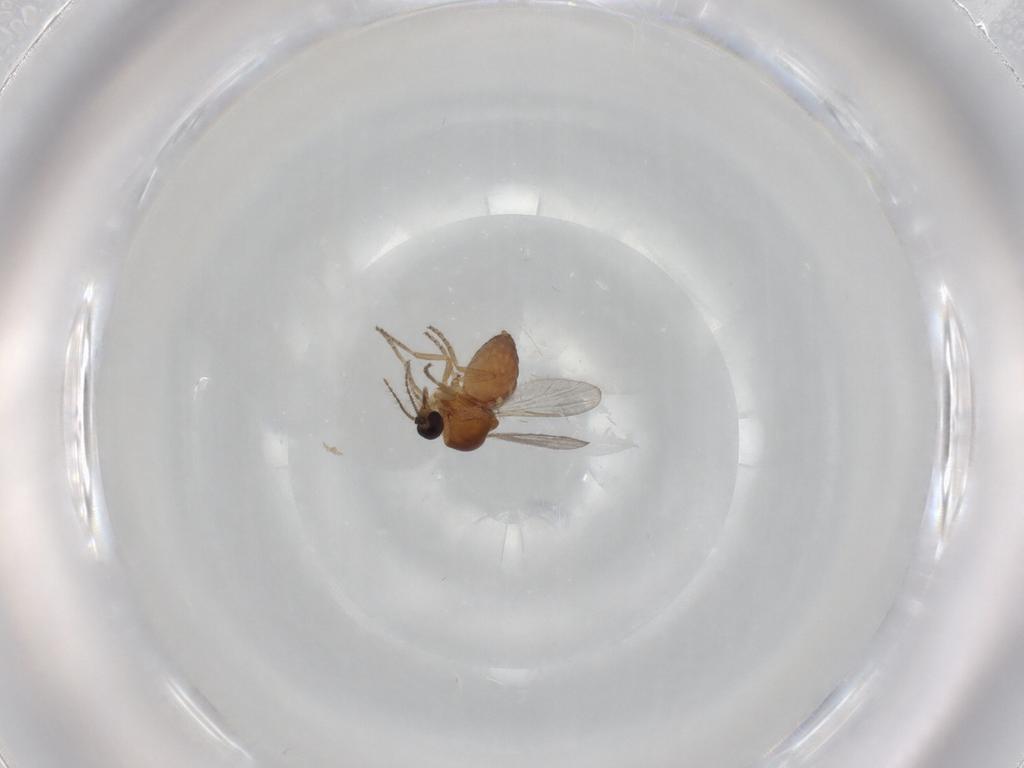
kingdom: Animalia
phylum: Arthropoda
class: Insecta
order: Diptera
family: Ceratopogonidae
